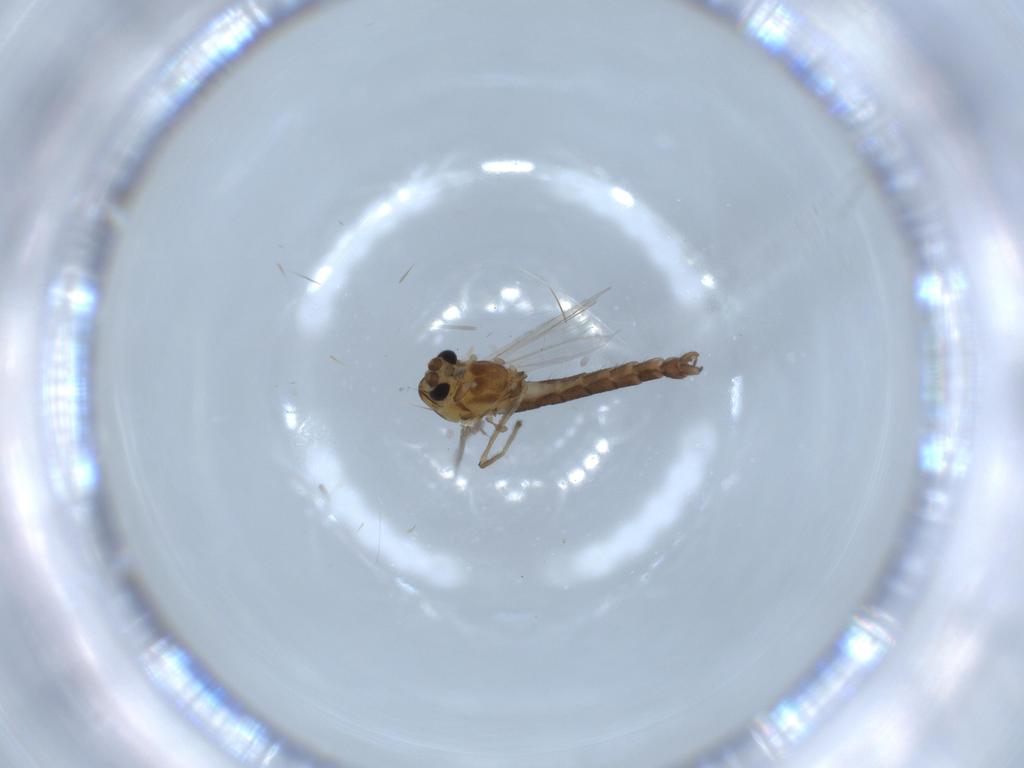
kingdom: Animalia
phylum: Arthropoda
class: Insecta
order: Diptera
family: Chironomidae
